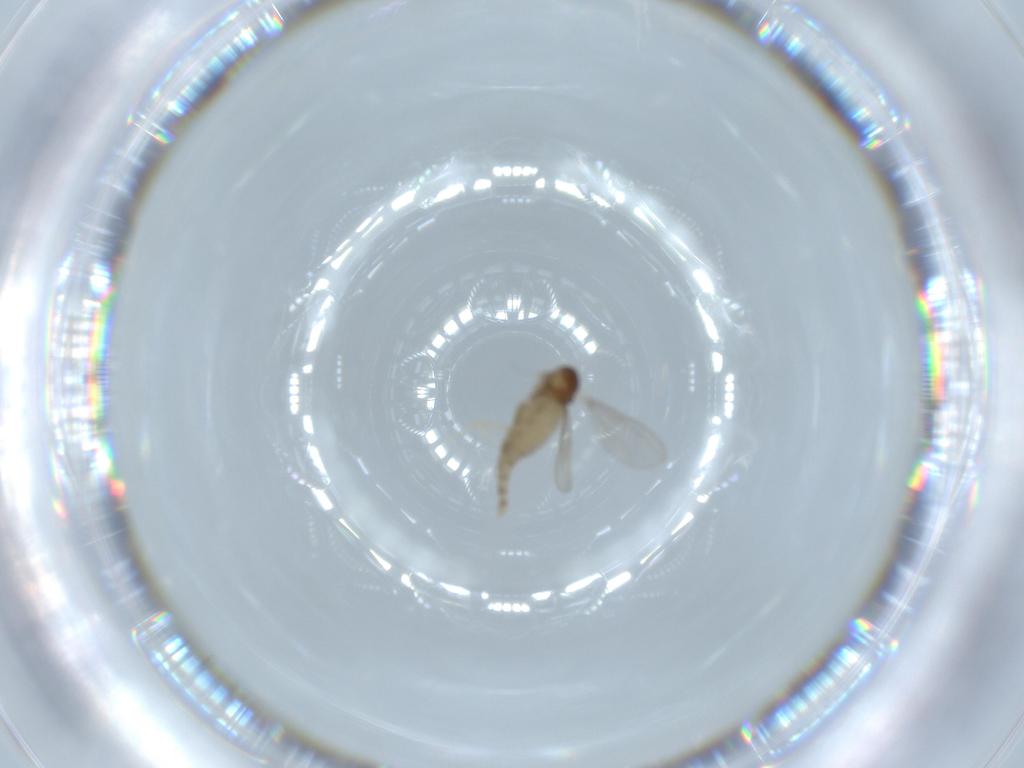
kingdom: Animalia
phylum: Arthropoda
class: Insecta
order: Diptera
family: Cecidomyiidae
